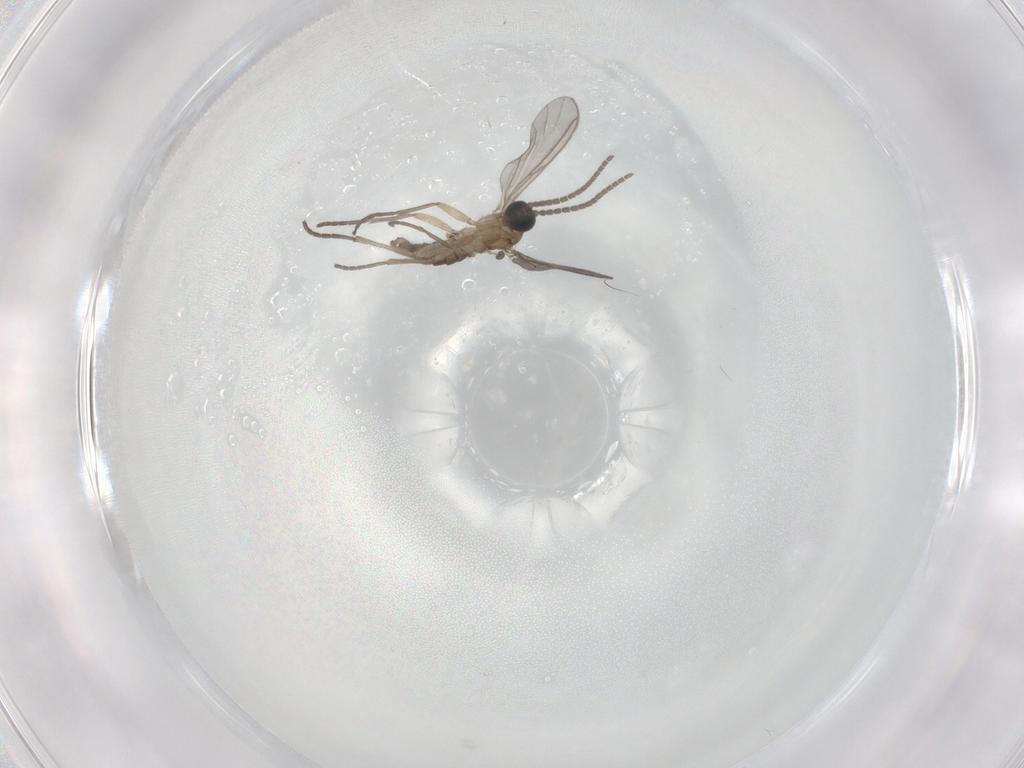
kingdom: Animalia
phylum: Arthropoda
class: Insecta
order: Diptera
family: Sciaridae
